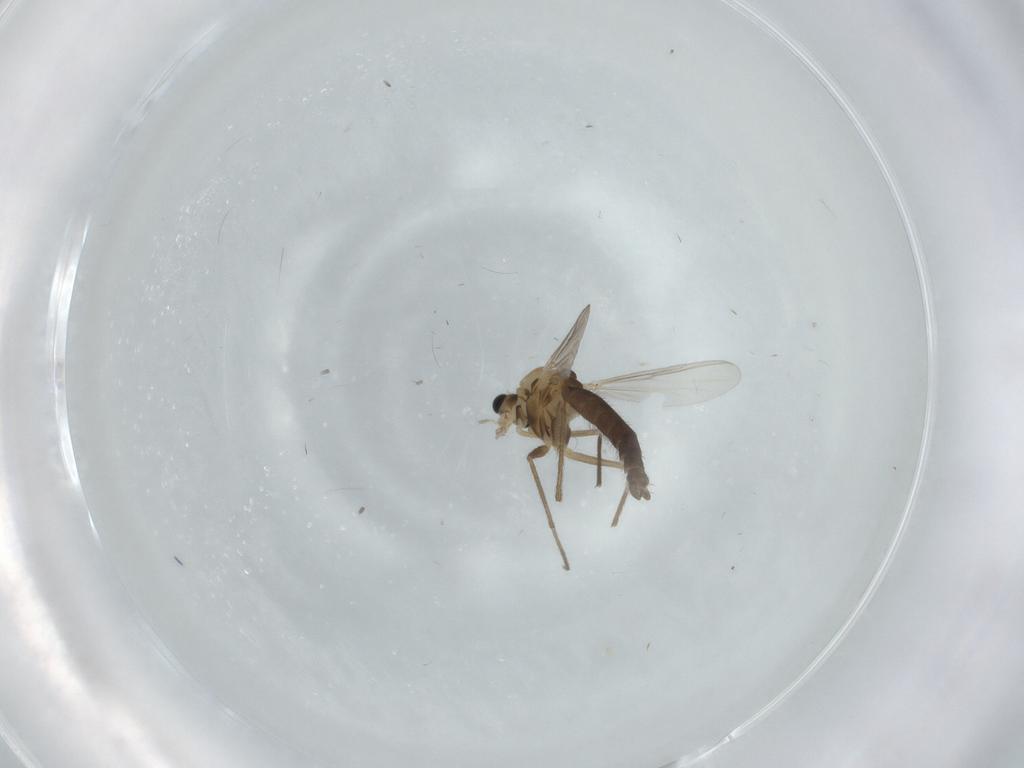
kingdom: Animalia
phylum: Arthropoda
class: Insecta
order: Diptera
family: Chironomidae
